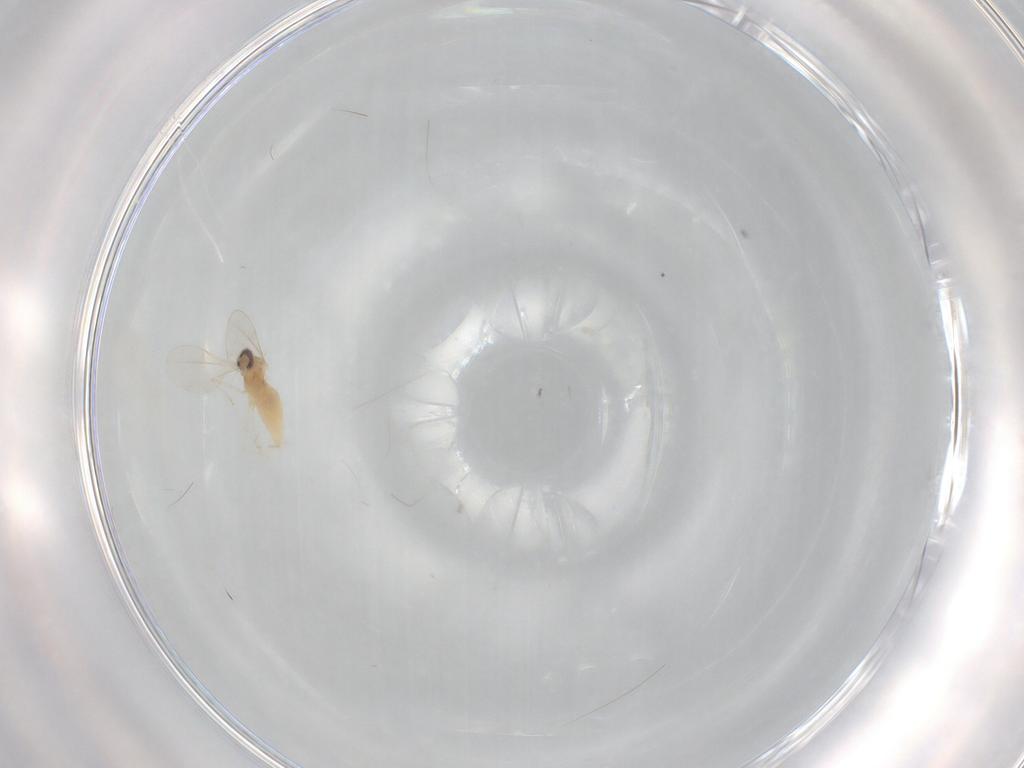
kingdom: Animalia
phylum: Arthropoda
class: Insecta
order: Diptera
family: Cecidomyiidae
